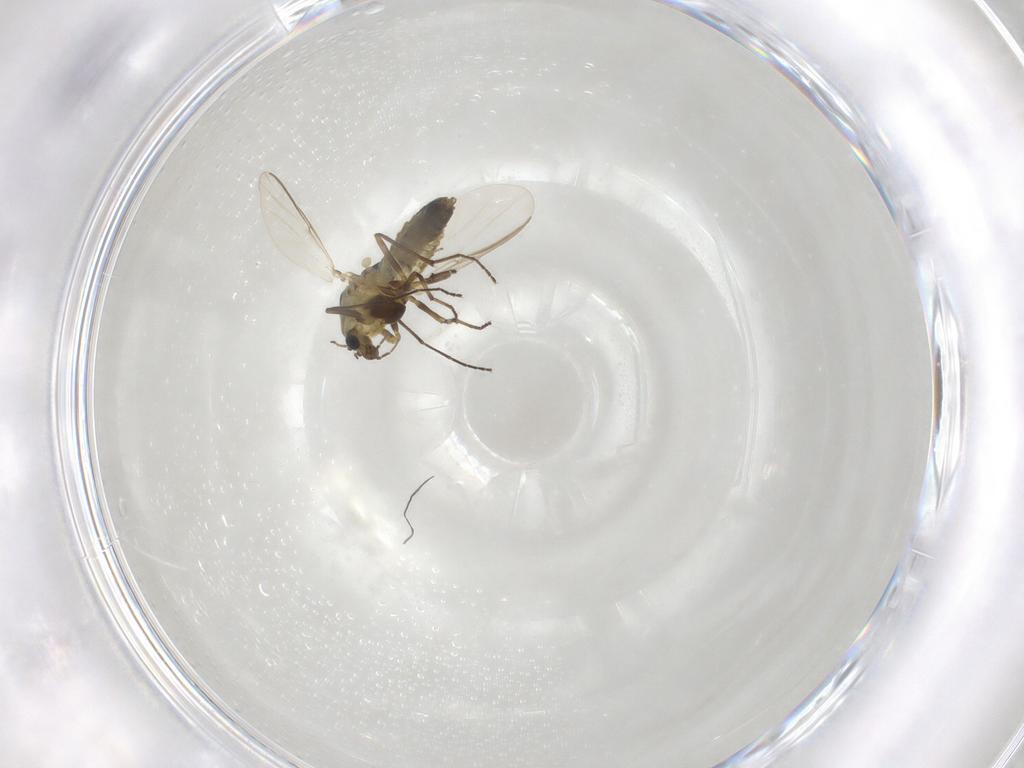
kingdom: Animalia
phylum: Arthropoda
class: Insecta
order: Diptera
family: Chironomidae
